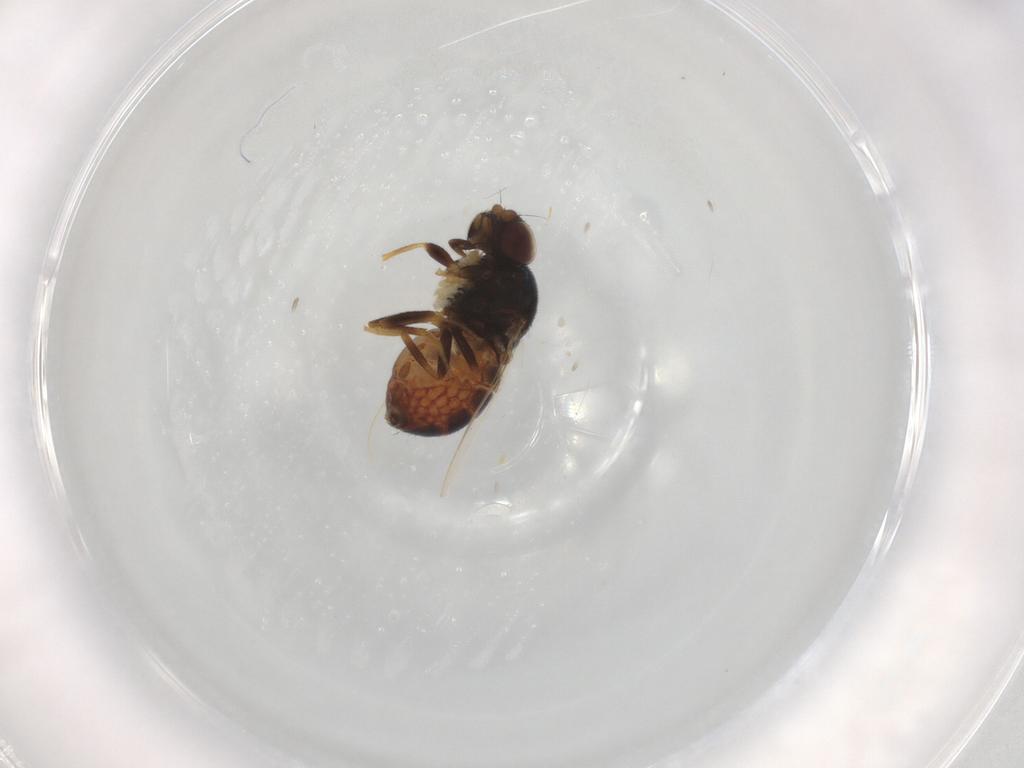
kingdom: Animalia
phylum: Arthropoda
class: Insecta
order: Diptera
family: Chloropidae
